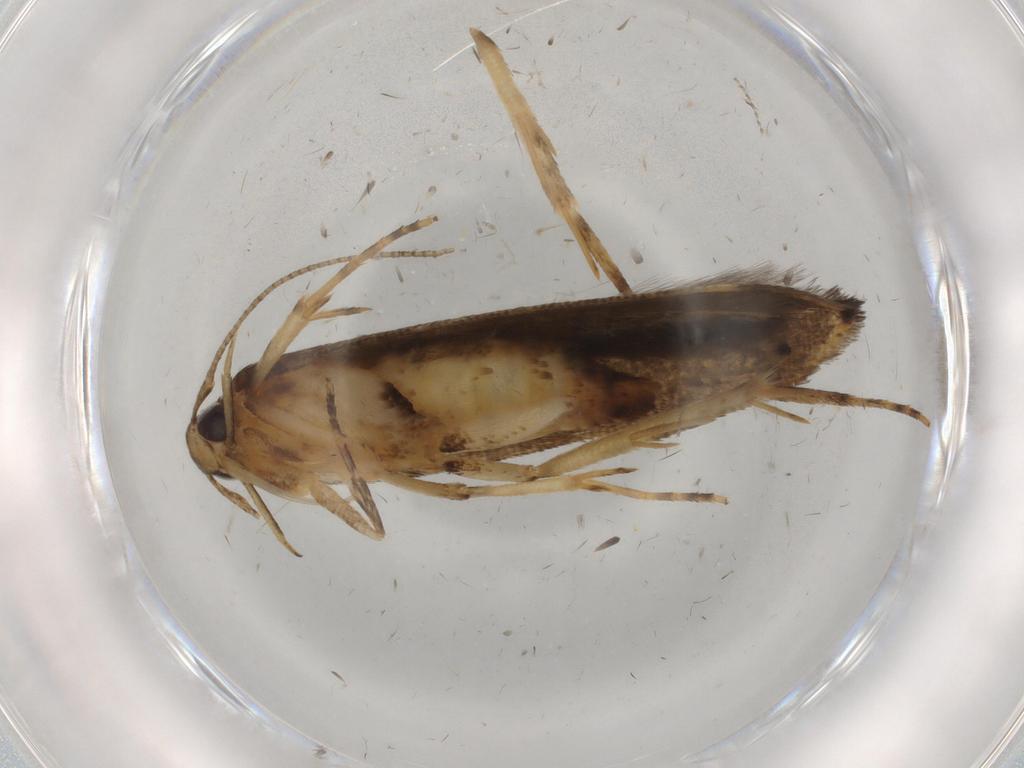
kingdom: Animalia
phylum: Arthropoda
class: Insecta
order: Lepidoptera
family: Cosmopterigidae
